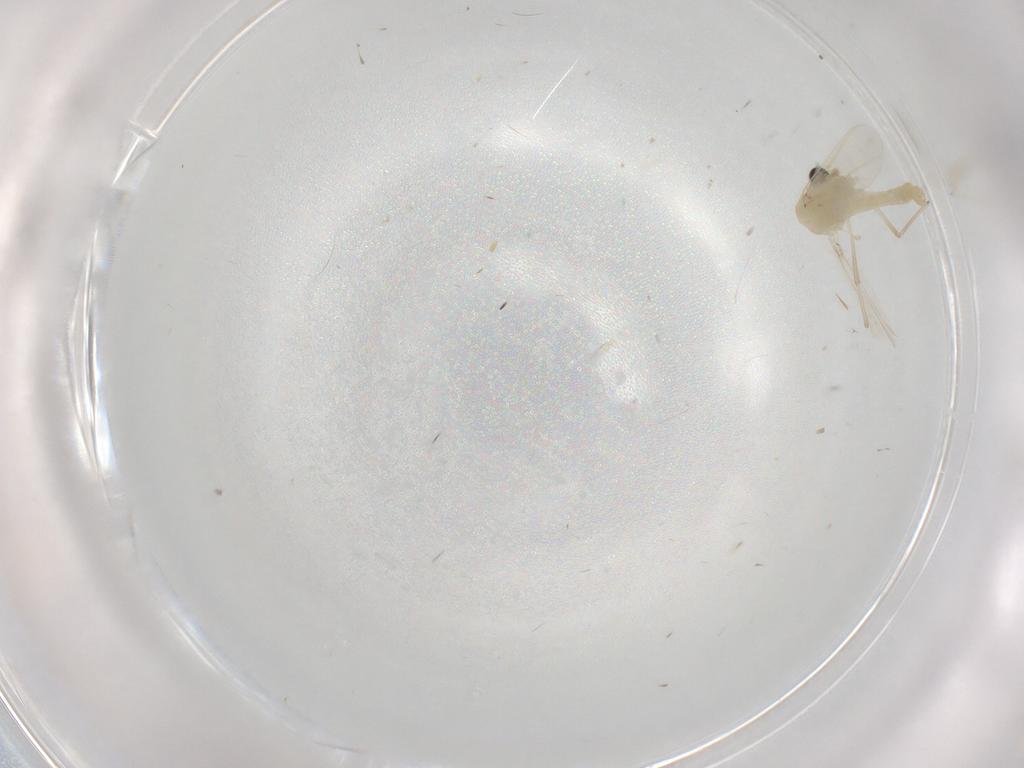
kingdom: Animalia
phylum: Arthropoda
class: Insecta
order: Diptera
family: Chironomidae
